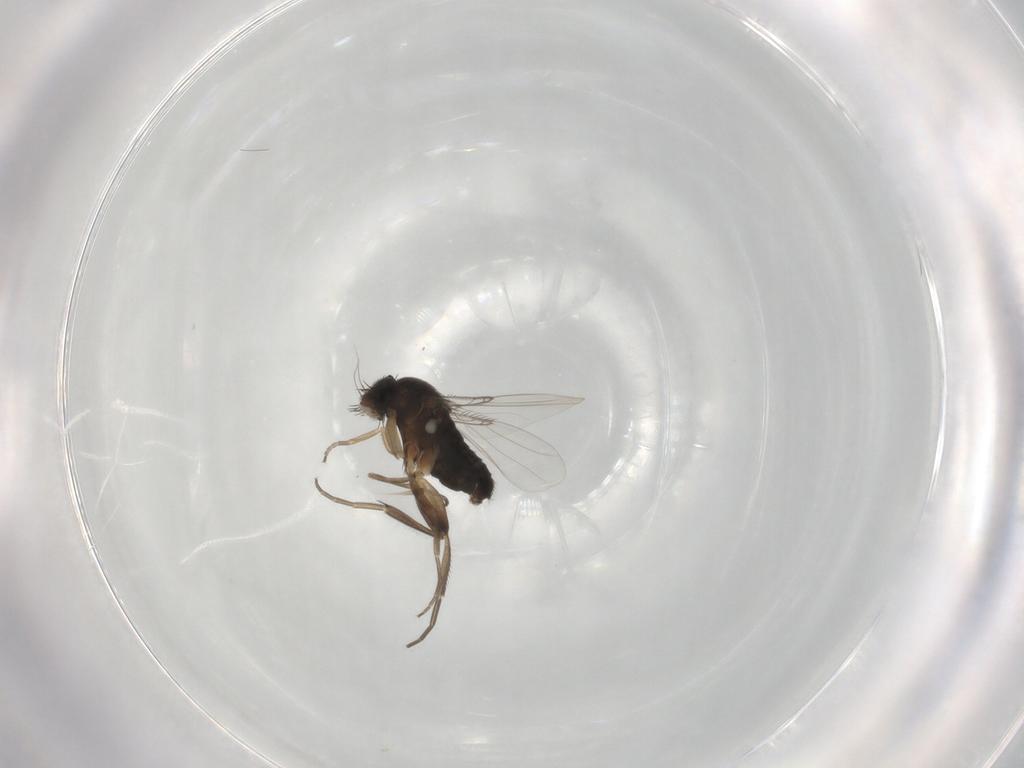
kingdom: Animalia
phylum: Arthropoda
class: Insecta
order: Diptera
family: Phoridae
